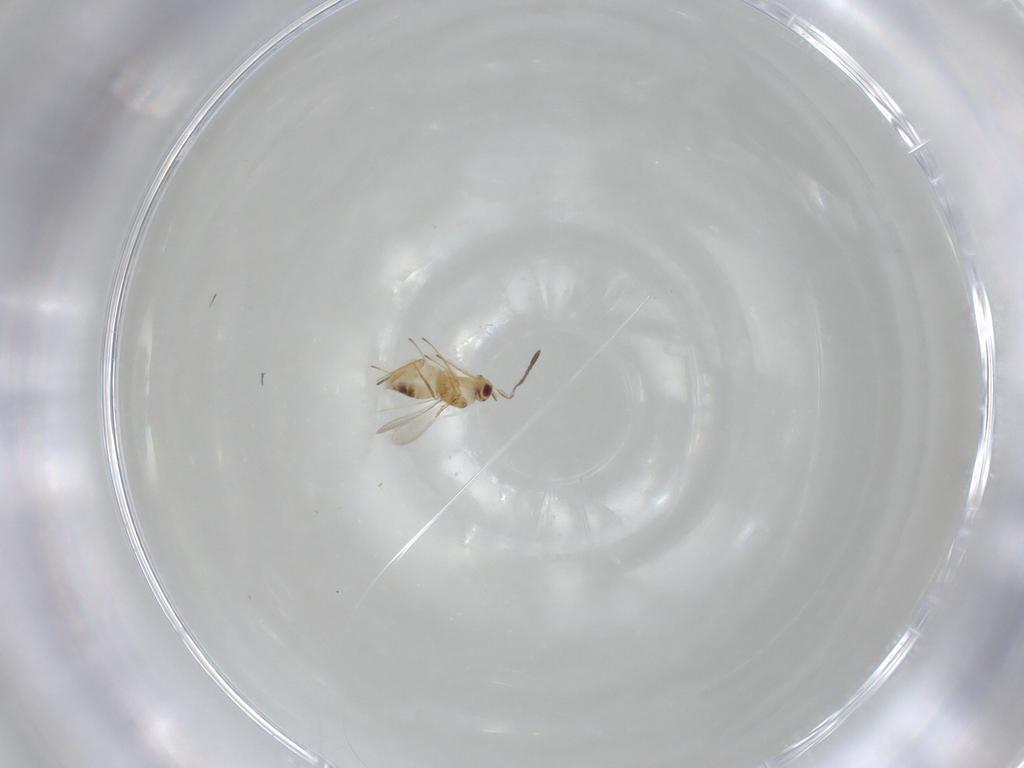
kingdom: Animalia
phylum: Arthropoda
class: Insecta
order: Hymenoptera
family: Mymaridae
